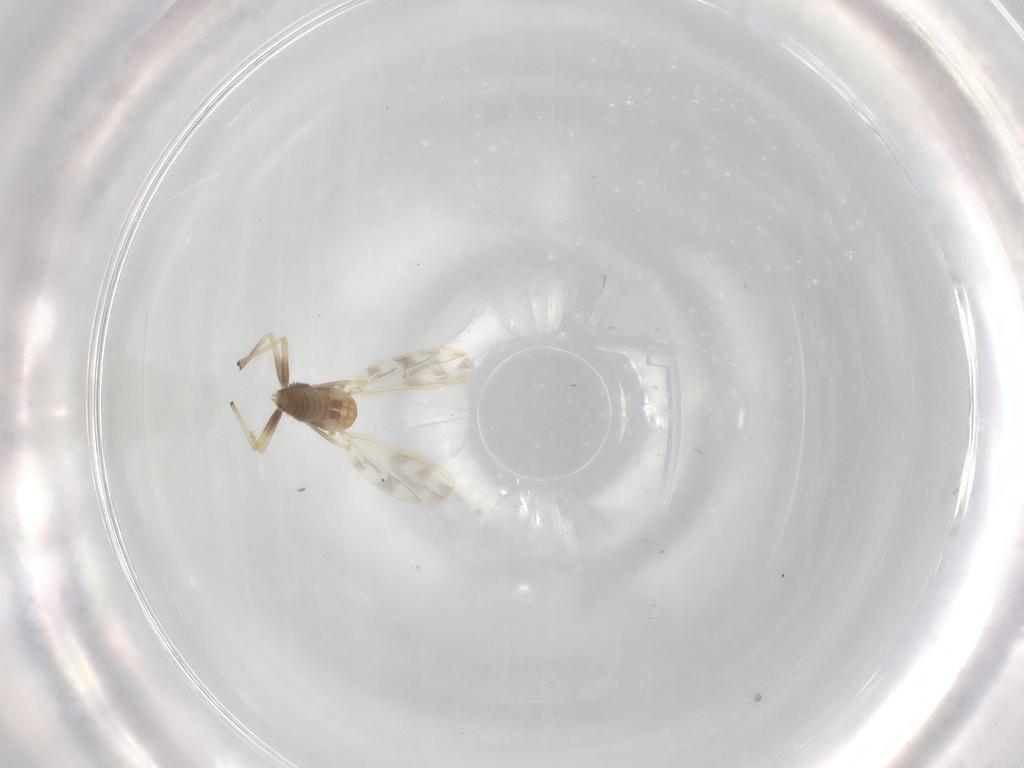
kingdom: Animalia
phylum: Arthropoda
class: Insecta
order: Diptera
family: Chironomidae
